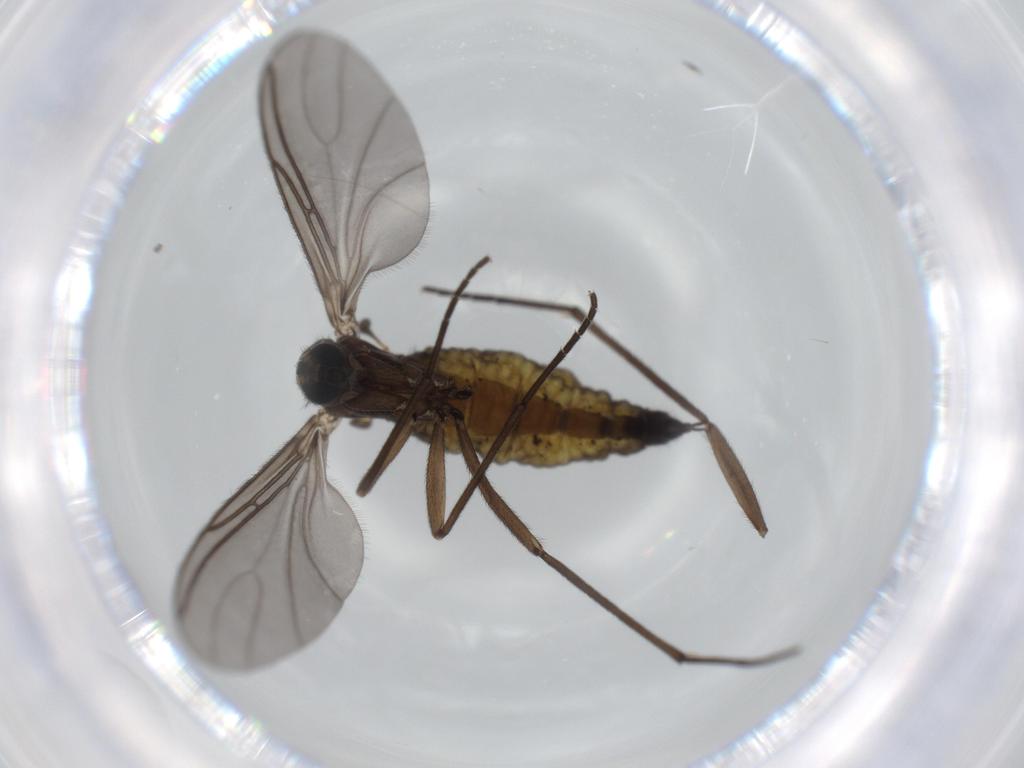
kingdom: Animalia
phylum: Arthropoda
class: Insecta
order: Diptera
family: Sciaridae
